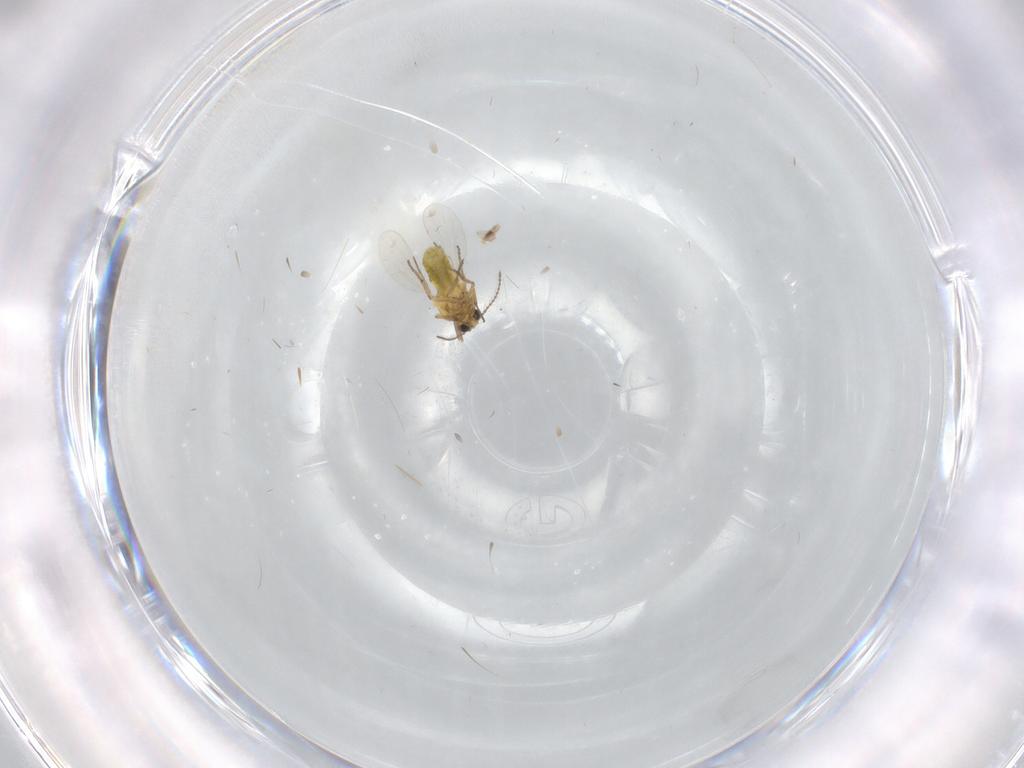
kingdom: Animalia
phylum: Arthropoda
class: Insecta
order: Diptera
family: Ceratopogonidae
